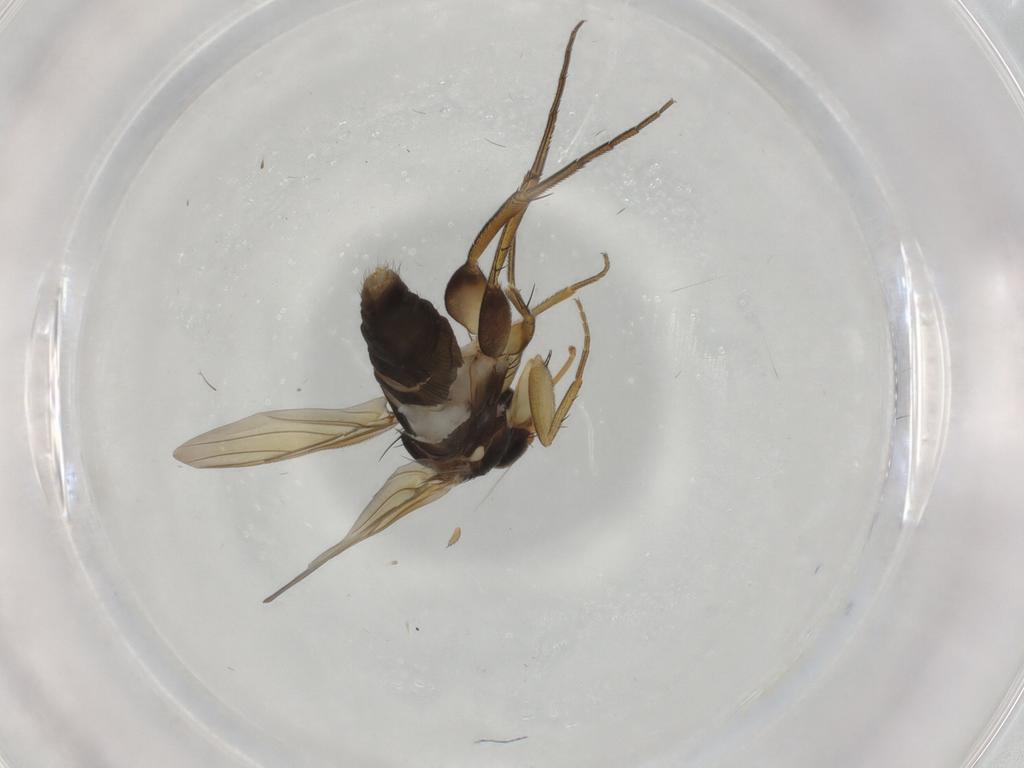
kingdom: Animalia
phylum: Arthropoda
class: Insecta
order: Diptera
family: Phoridae
